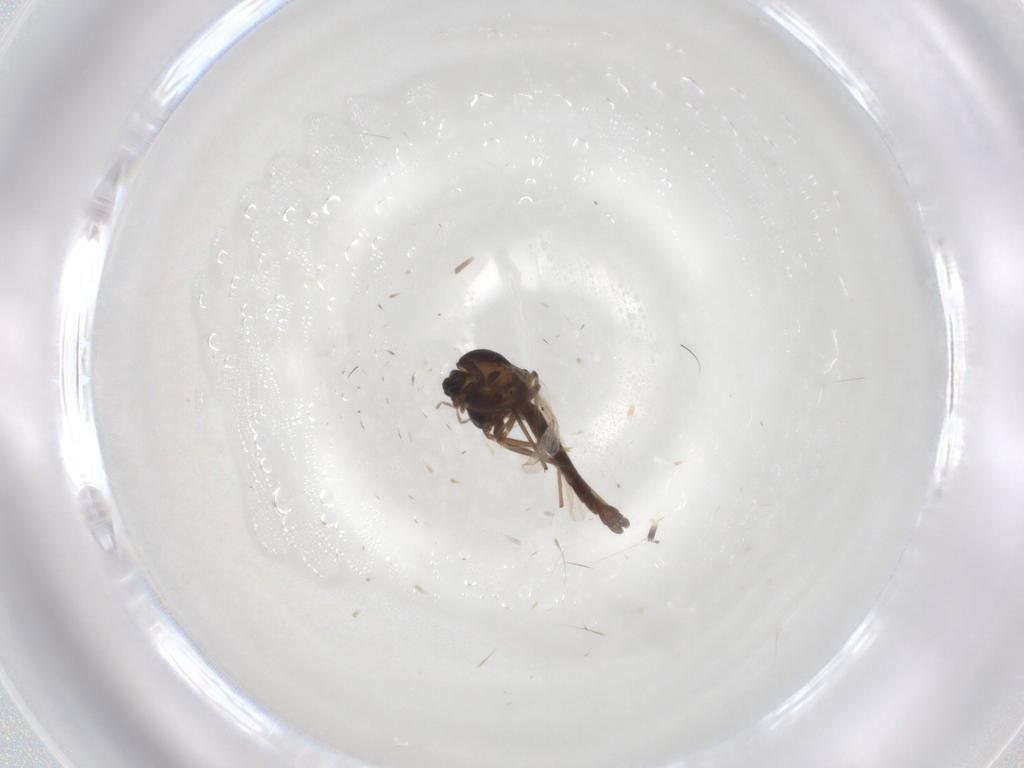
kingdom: Animalia
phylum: Arthropoda
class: Insecta
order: Diptera
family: Chironomidae
